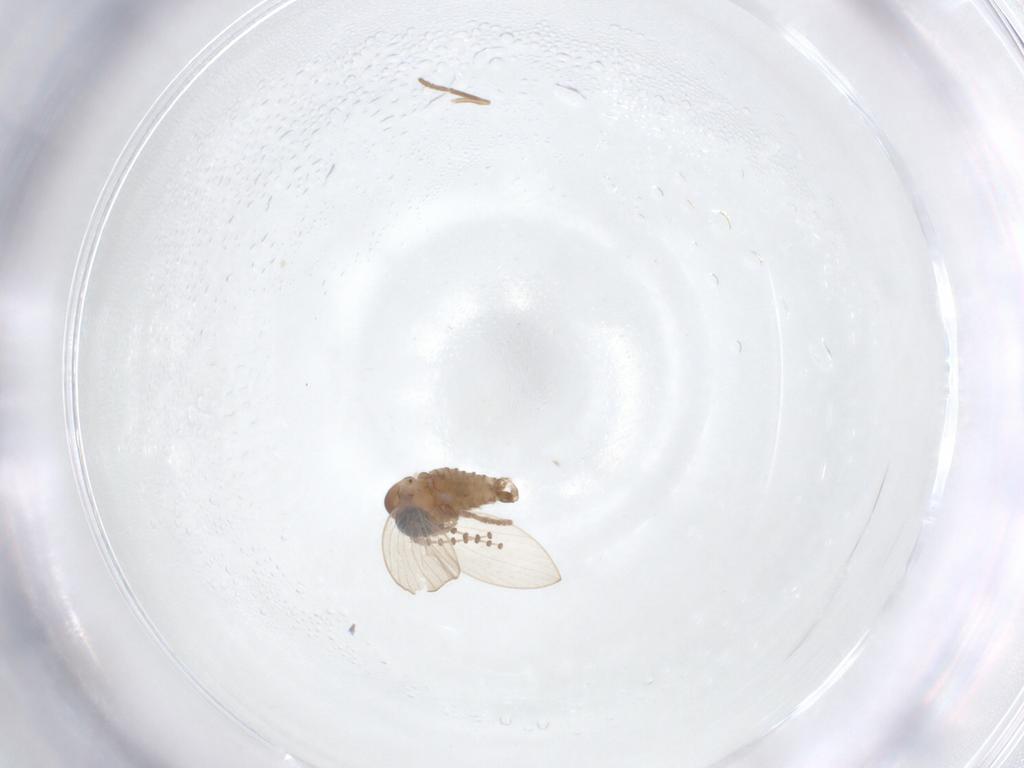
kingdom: Animalia
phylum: Arthropoda
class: Insecta
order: Diptera
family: Psychodidae
